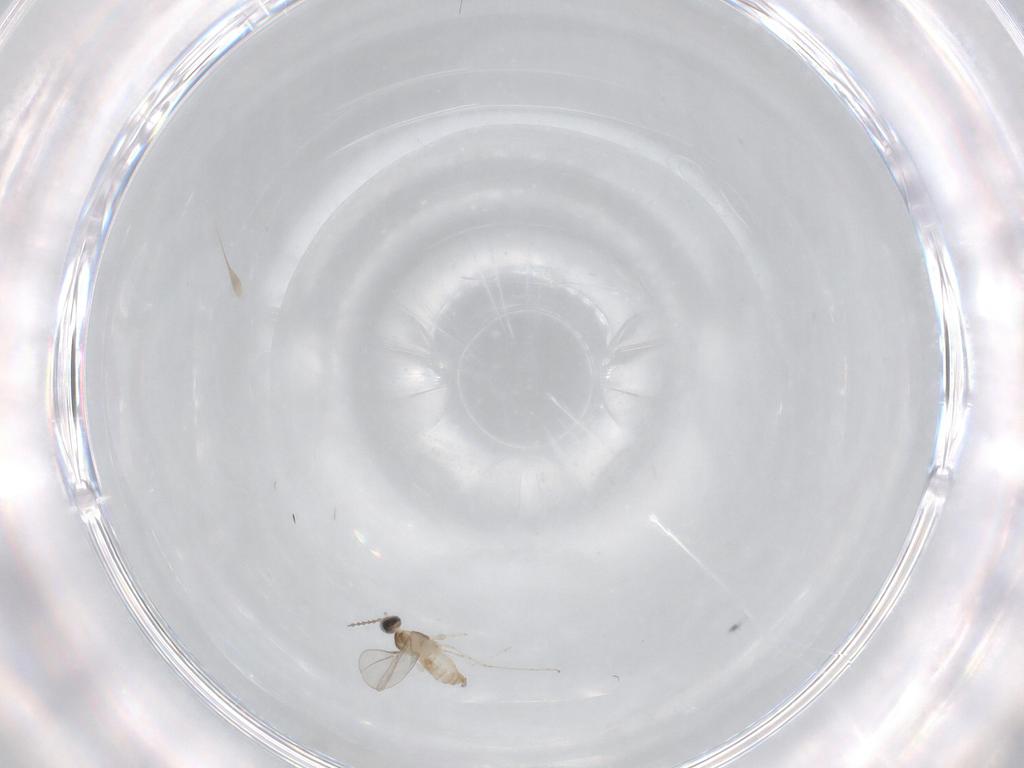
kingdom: Animalia
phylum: Arthropoda
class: Insecta
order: Diptera
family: Cecidomyiidae
